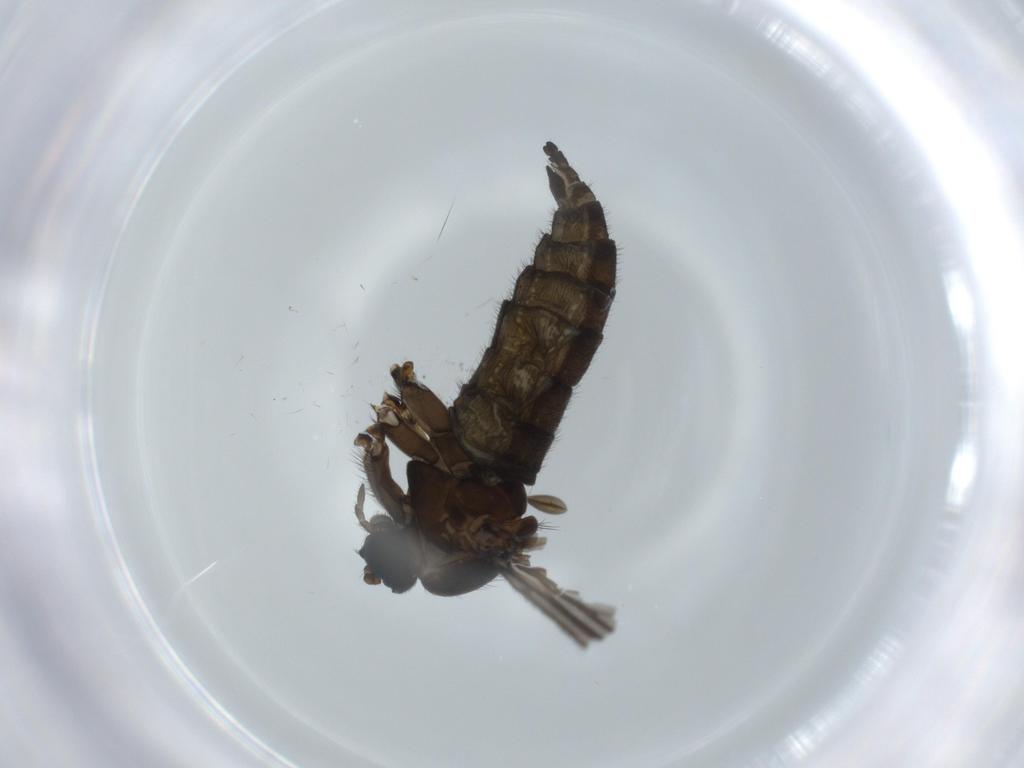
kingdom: Animalia
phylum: Arthropoda
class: Insecta
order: Diptera
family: Sciaridae
